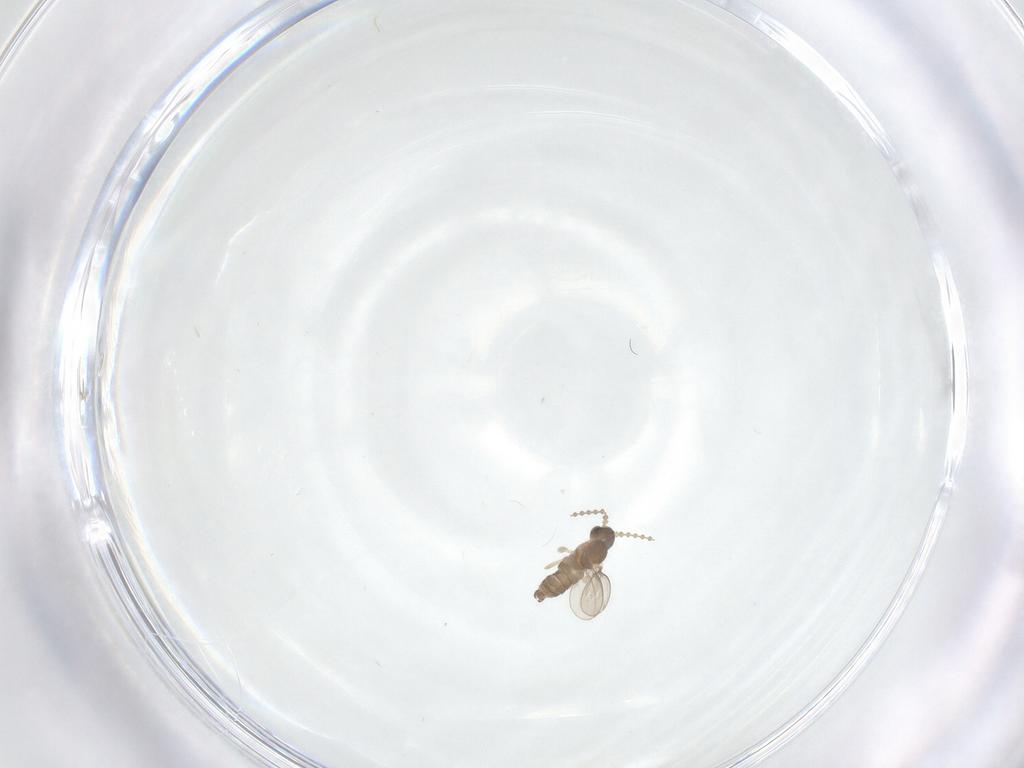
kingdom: Animalia
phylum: Arthropoda
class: Insecta
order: Diptera
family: Cecidomyiidae
